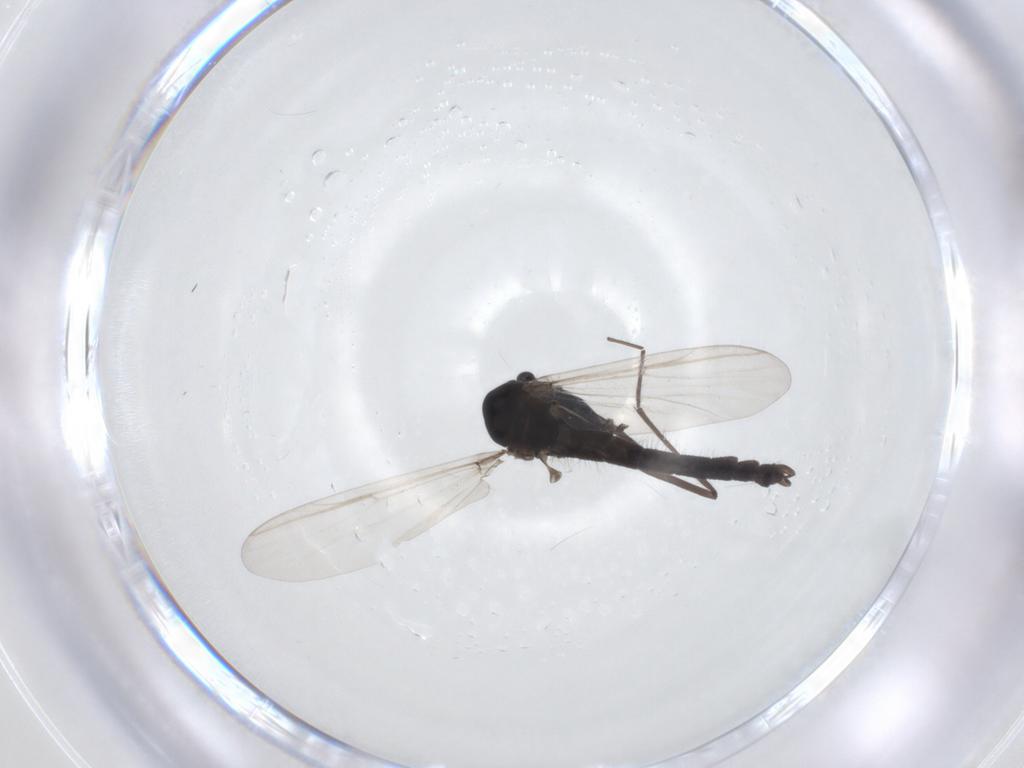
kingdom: Animalia
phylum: Arthropoda
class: Insecta
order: Diptera
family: Chironomidae
